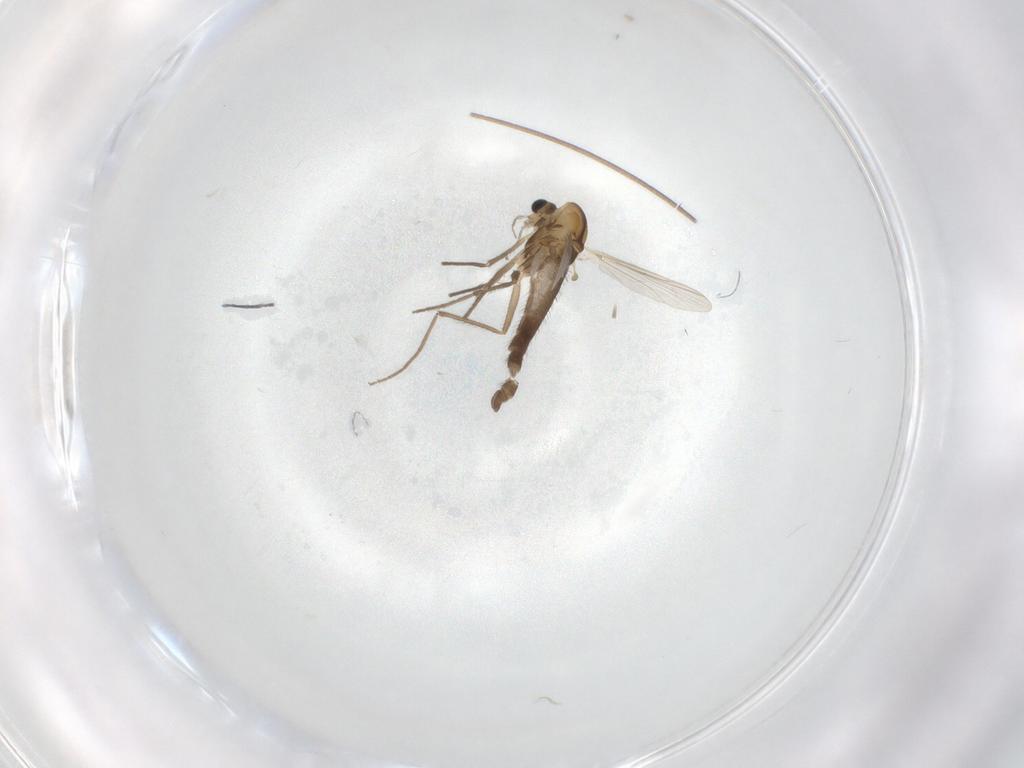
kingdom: Animalia
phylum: Arthropoda
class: Insecta
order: Diptera
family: Chironomidae
